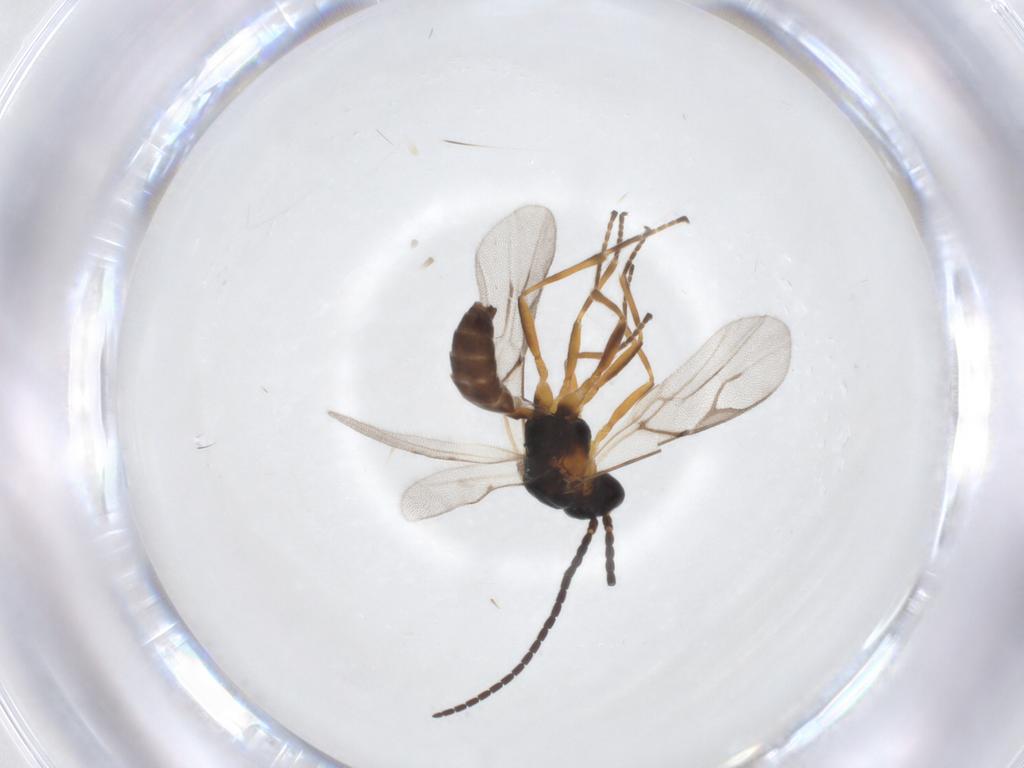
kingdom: Animalia
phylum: Arthropoda
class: Insecta
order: Hymenoptera
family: Braconidae
